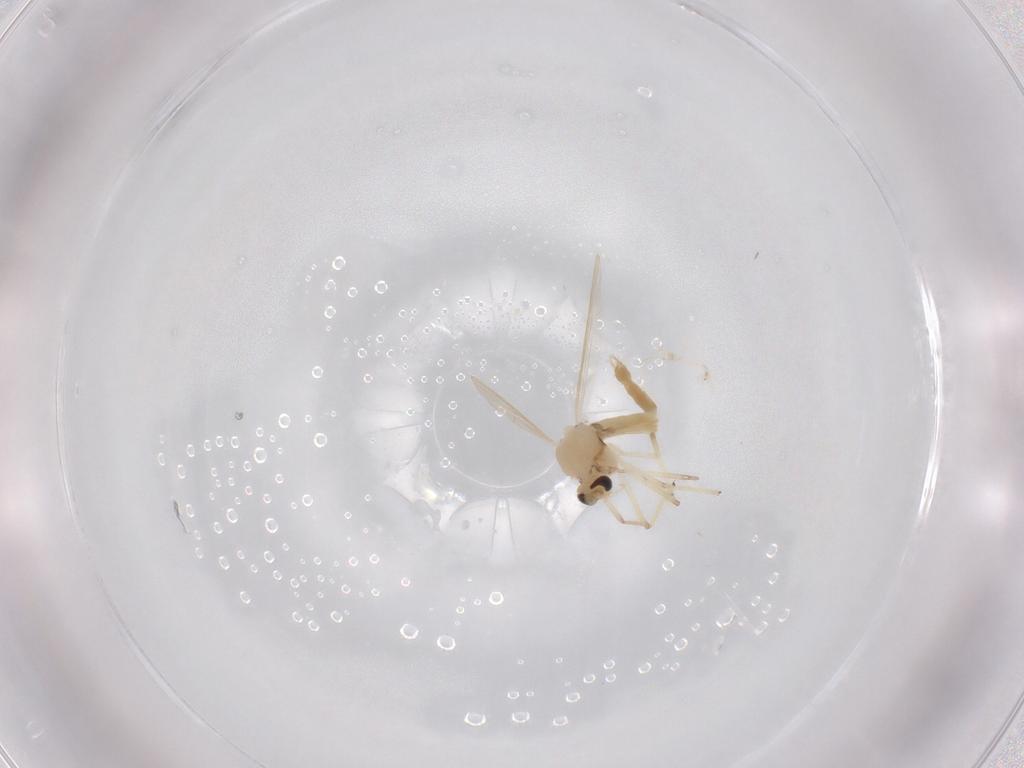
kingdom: Animalia
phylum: Arthropoda
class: Insecta
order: Diptera
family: Chironomidae
